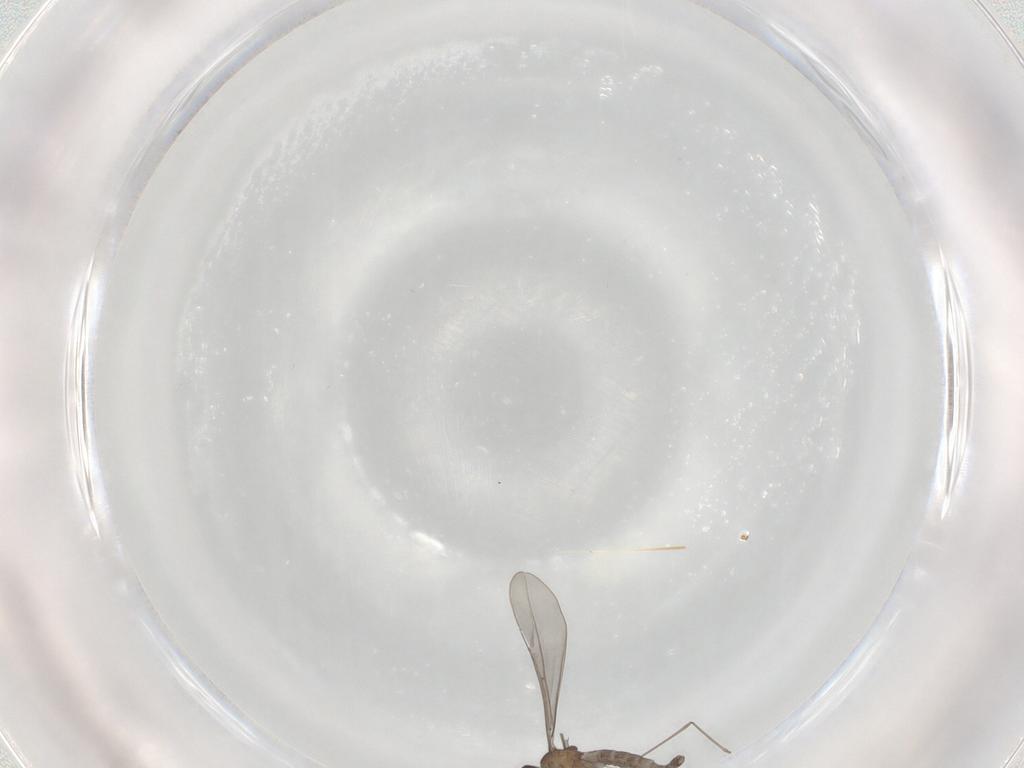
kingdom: Animalia
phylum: Arthropoda
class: Insecta
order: Diptera
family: Cecidomyiidae
